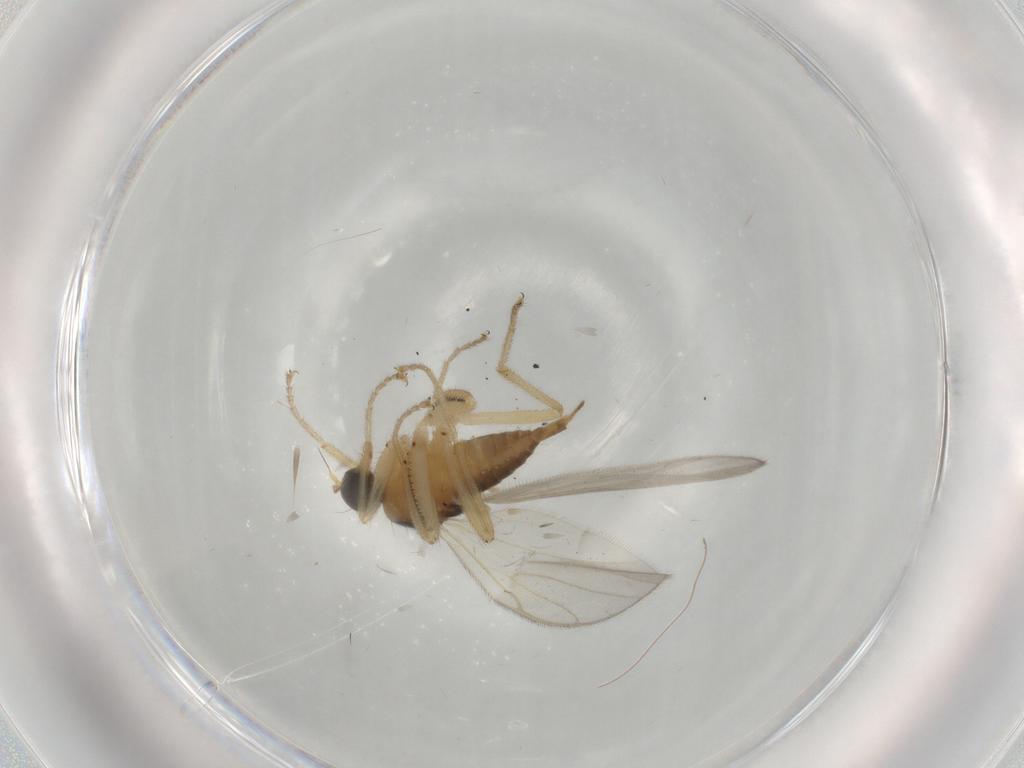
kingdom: Animalia
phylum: Arthropoda
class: Insecta
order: Diptera
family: Hybotidae
